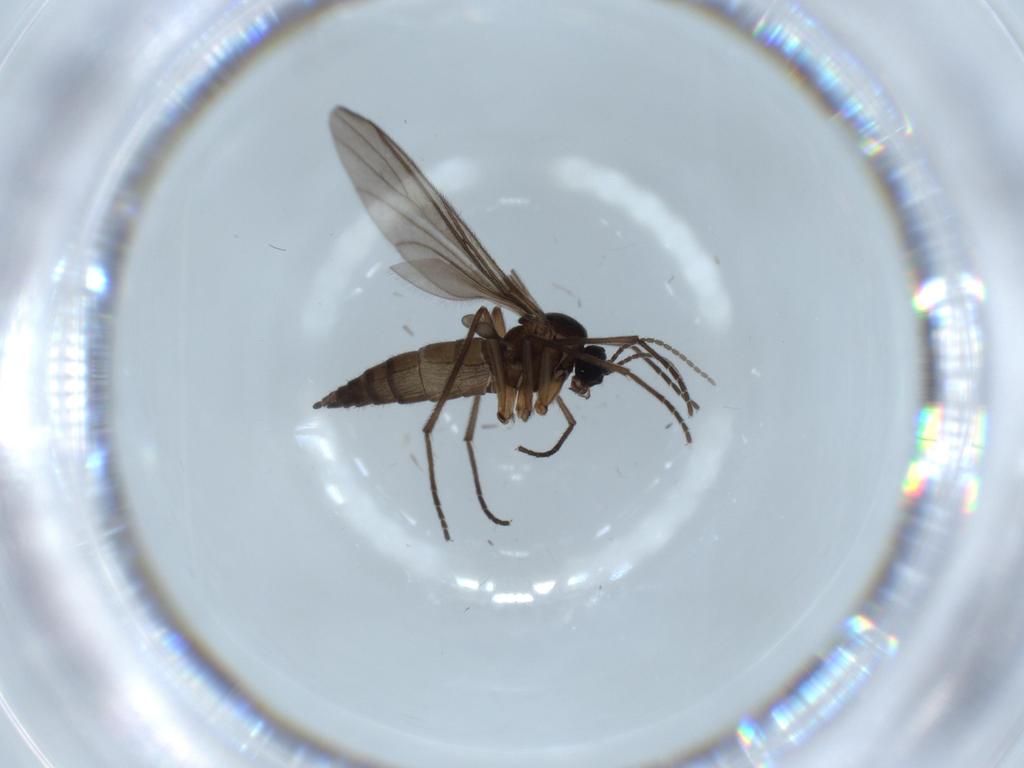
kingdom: Animalia
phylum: Arthropoda
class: Insecta
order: Diptera
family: Sciaridae
